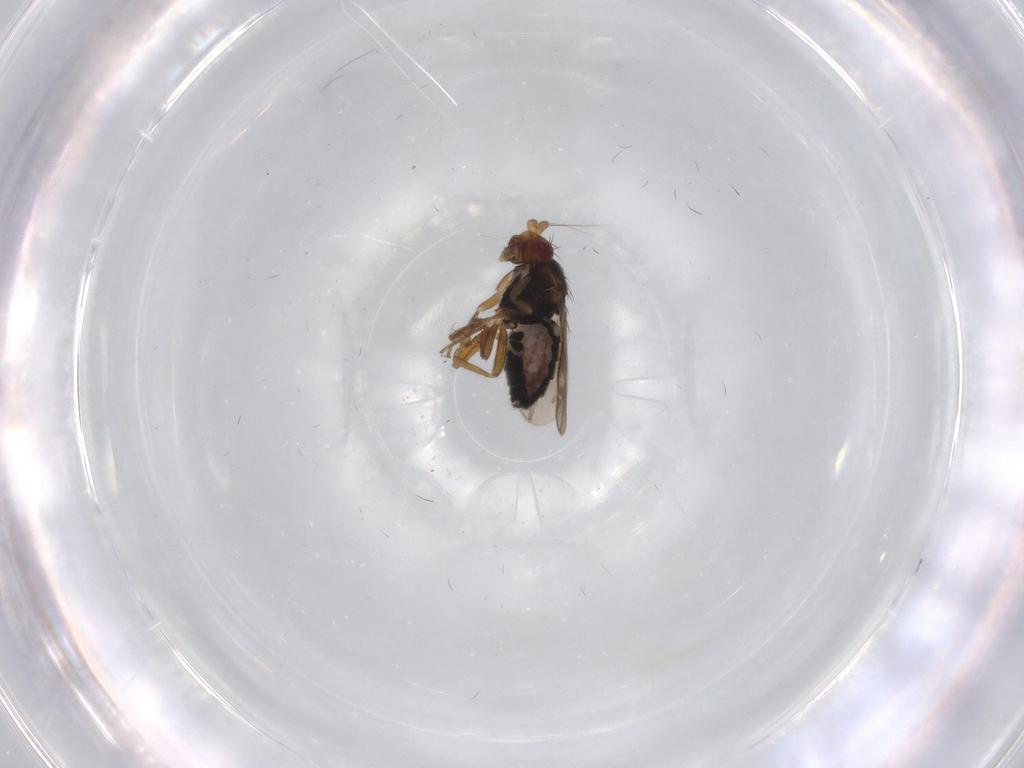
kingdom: Animalia
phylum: Arthropoda
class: Insecta
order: Diptera
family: Sphaeroceridae
